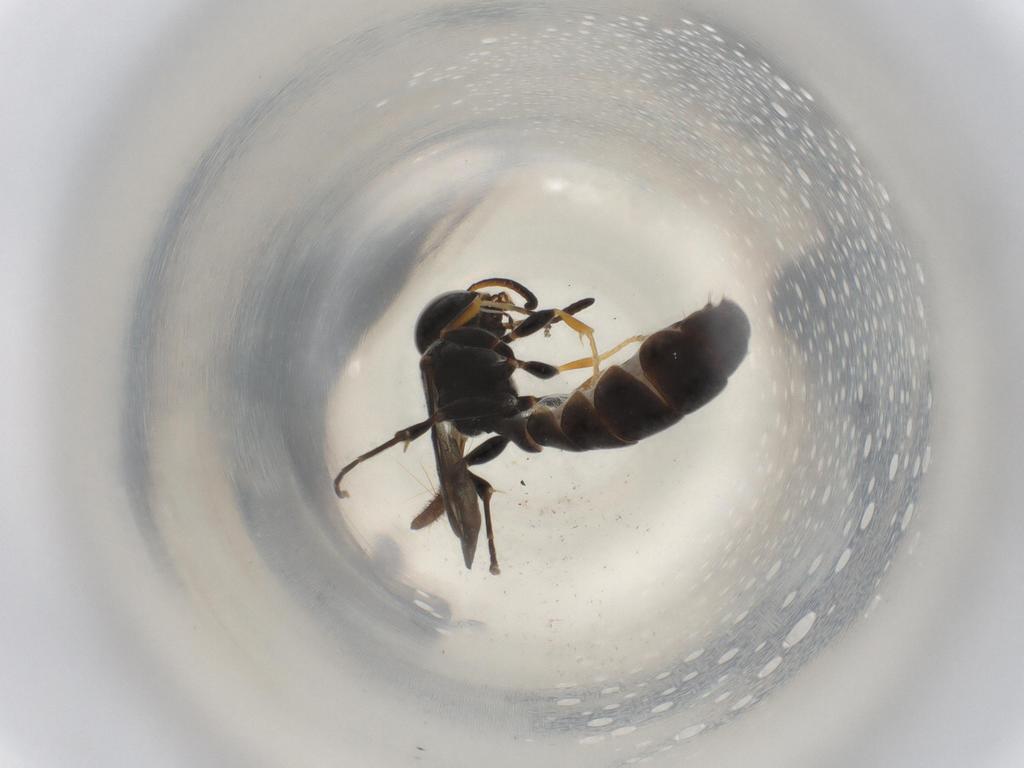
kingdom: Animalia
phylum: Arthropoda
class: Insecta
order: Hymenoptera
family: Crabronidae
